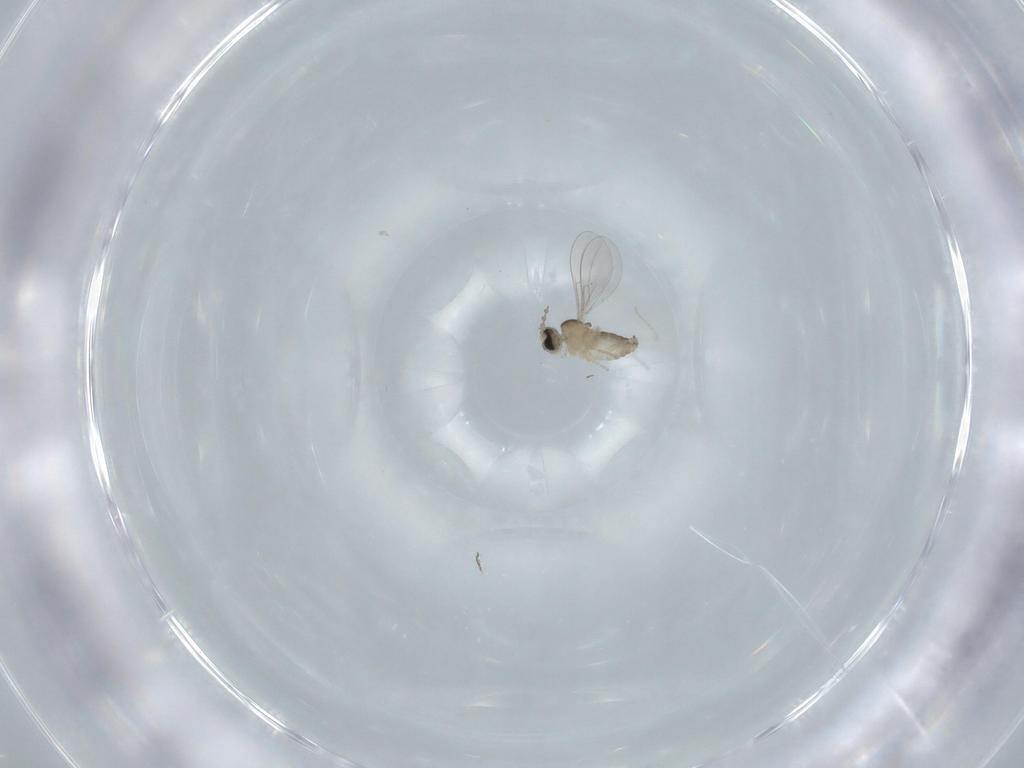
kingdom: Animalia
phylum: Arthropoda
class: Insecta
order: Diptera
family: Cecidomyiidae
